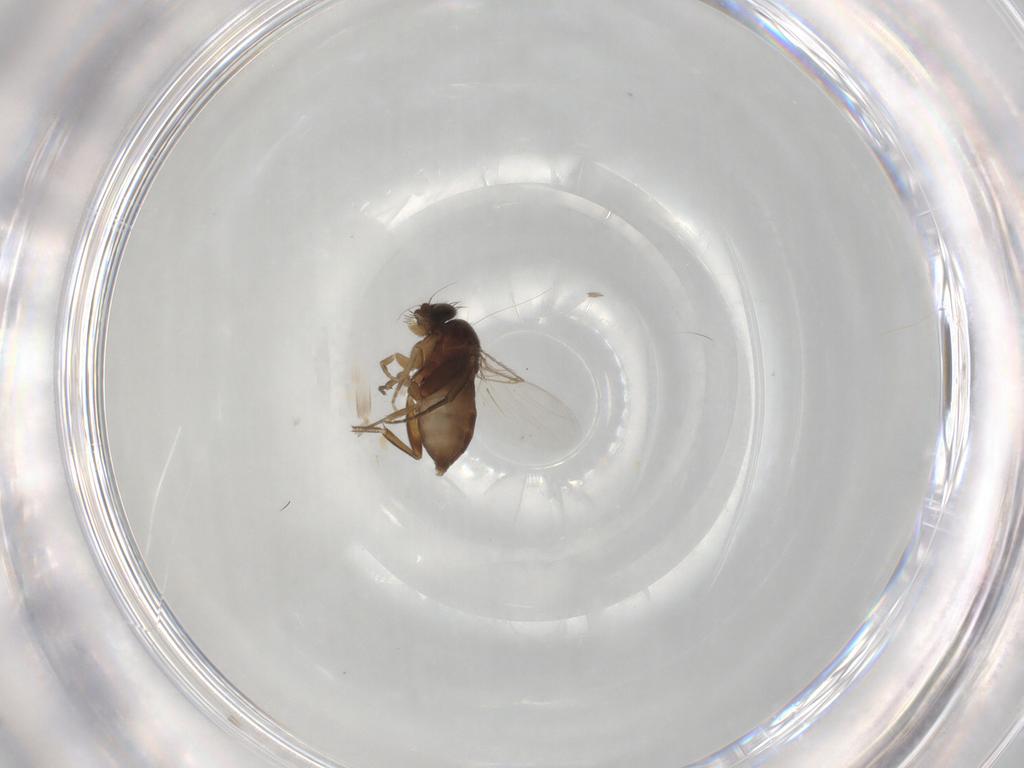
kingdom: Animalia
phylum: Arthropoda
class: Insecta
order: Diptera
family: Phoridae
